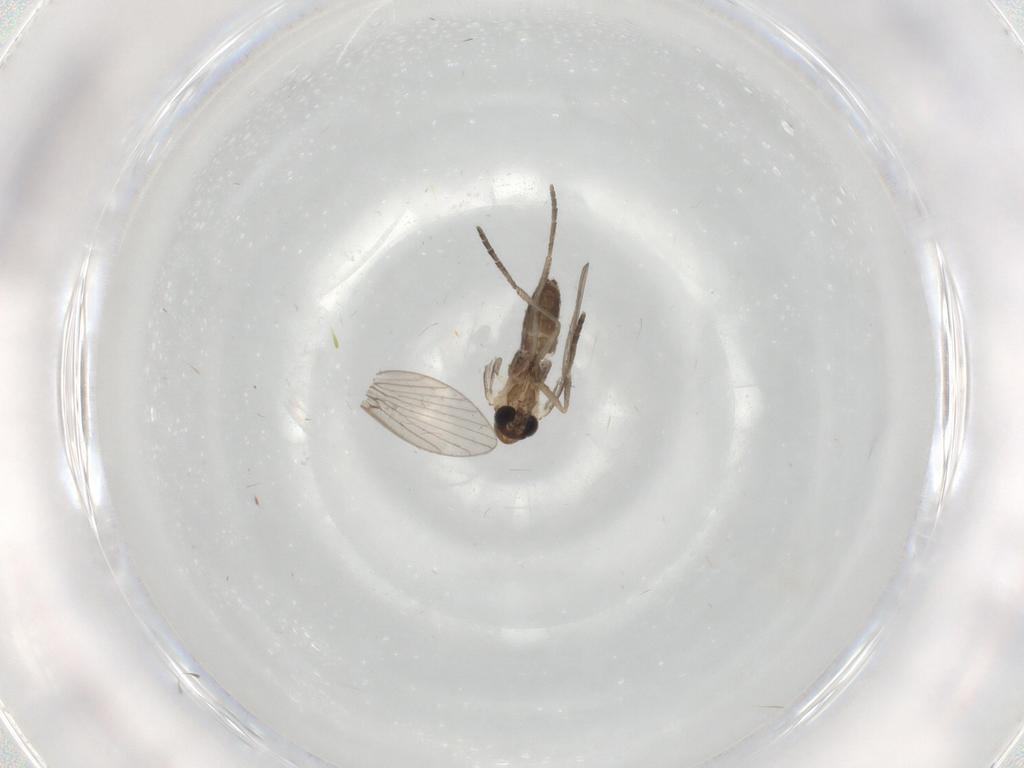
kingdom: Animalia
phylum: Arthropoda
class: Insecta
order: Diptera
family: Psychodidae
